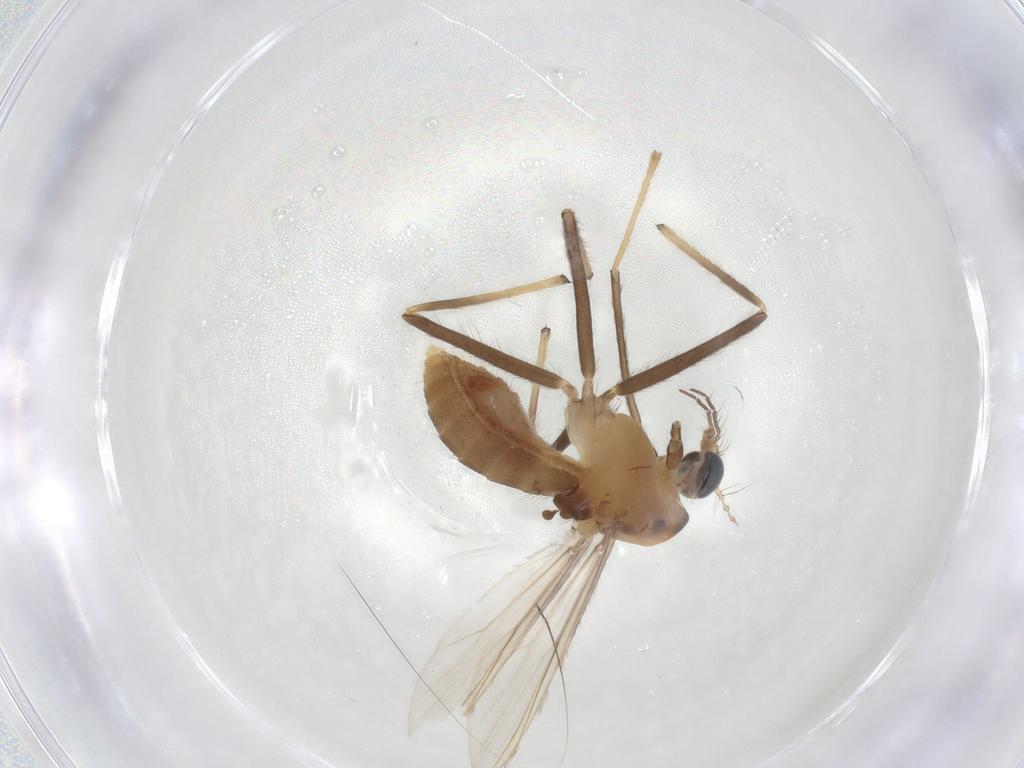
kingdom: Animalia
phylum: Arthropoda
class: Insecta
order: Diptera
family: Chironomidae
